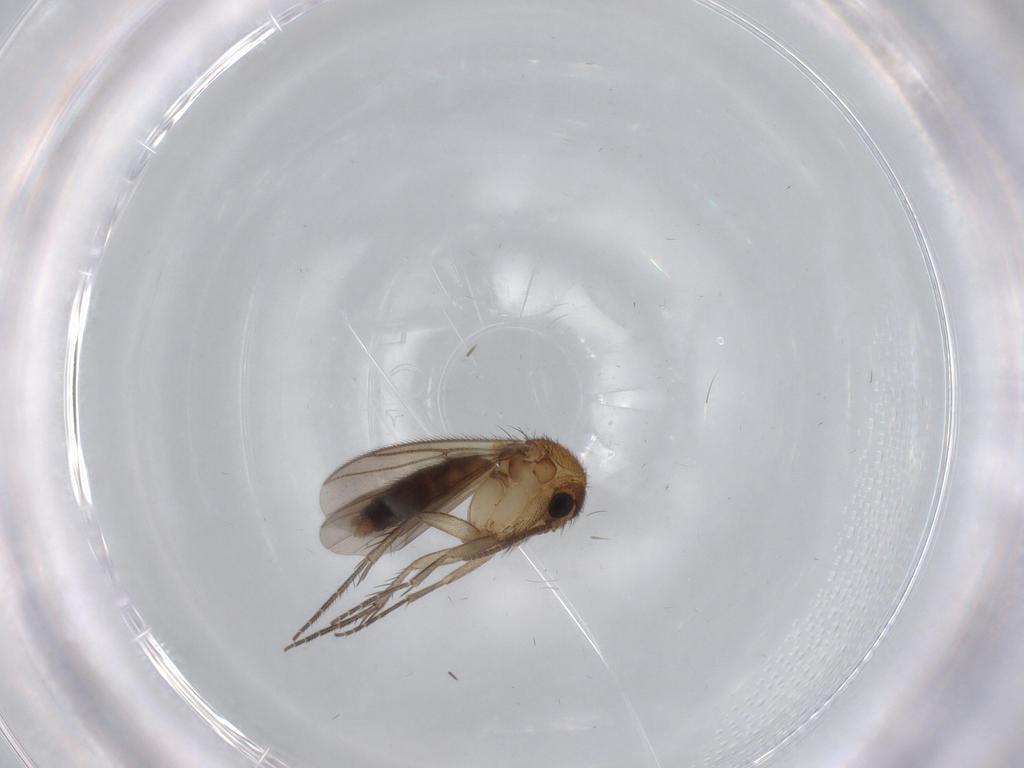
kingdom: Animalia
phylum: Arthropoda
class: Insecta
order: Diptera
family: Mycetophilidae
